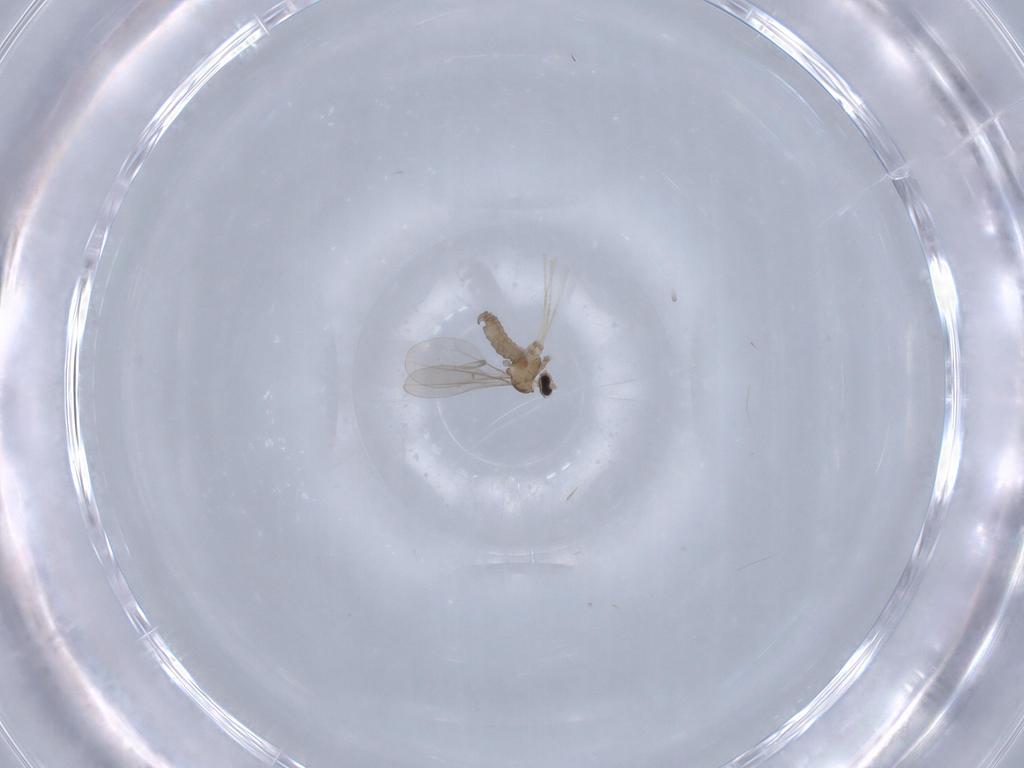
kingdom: Animalia
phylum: Arthropoda
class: Insecta
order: Diptera
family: Cecidomyiidae
